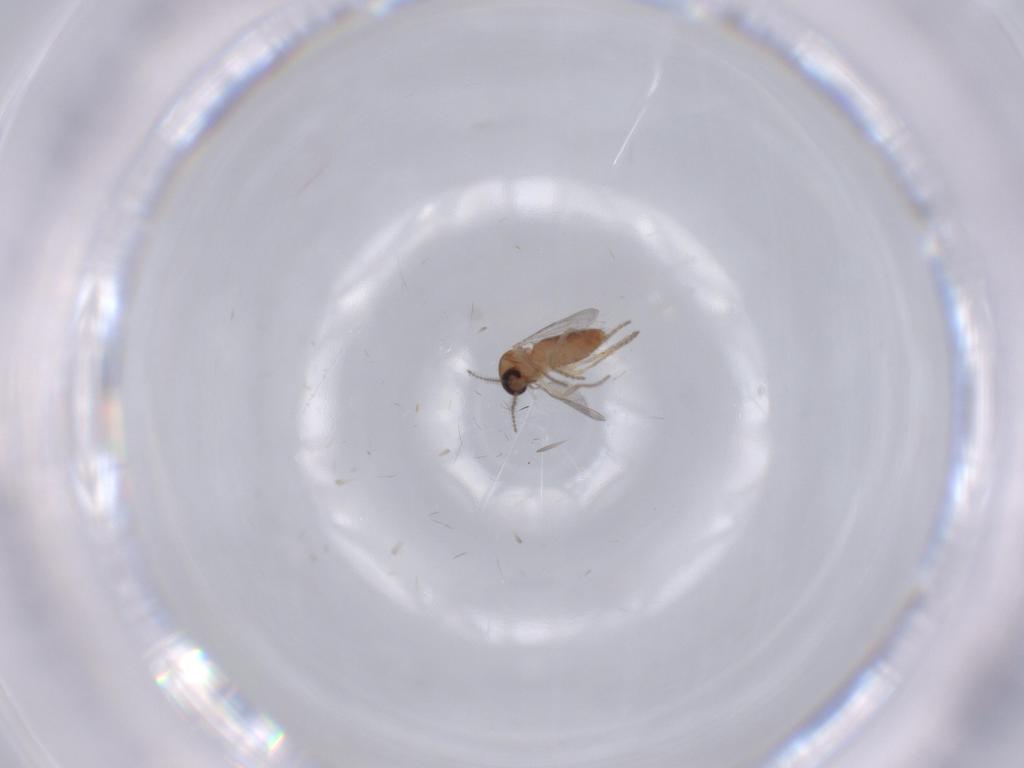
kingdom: Animalia
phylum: Arthropoda
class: Insecta
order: Diptera
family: Ceratopogonidae
